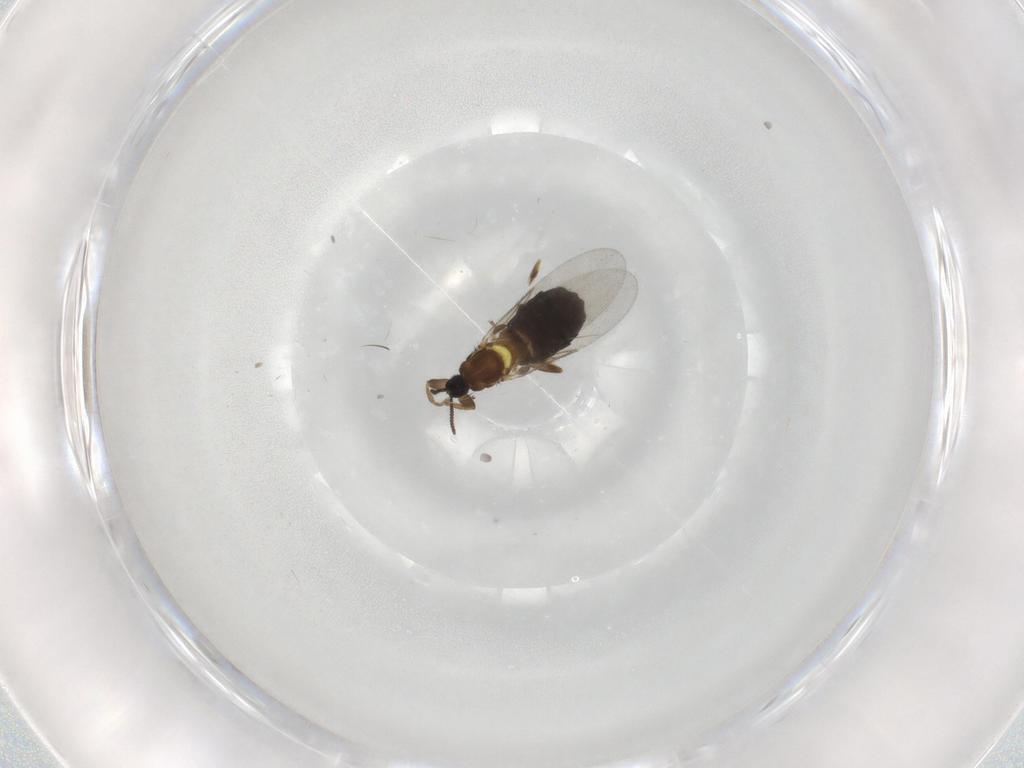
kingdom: Animalia
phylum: Arthropoda
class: Insecta
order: Diptera
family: Scatopsidae
